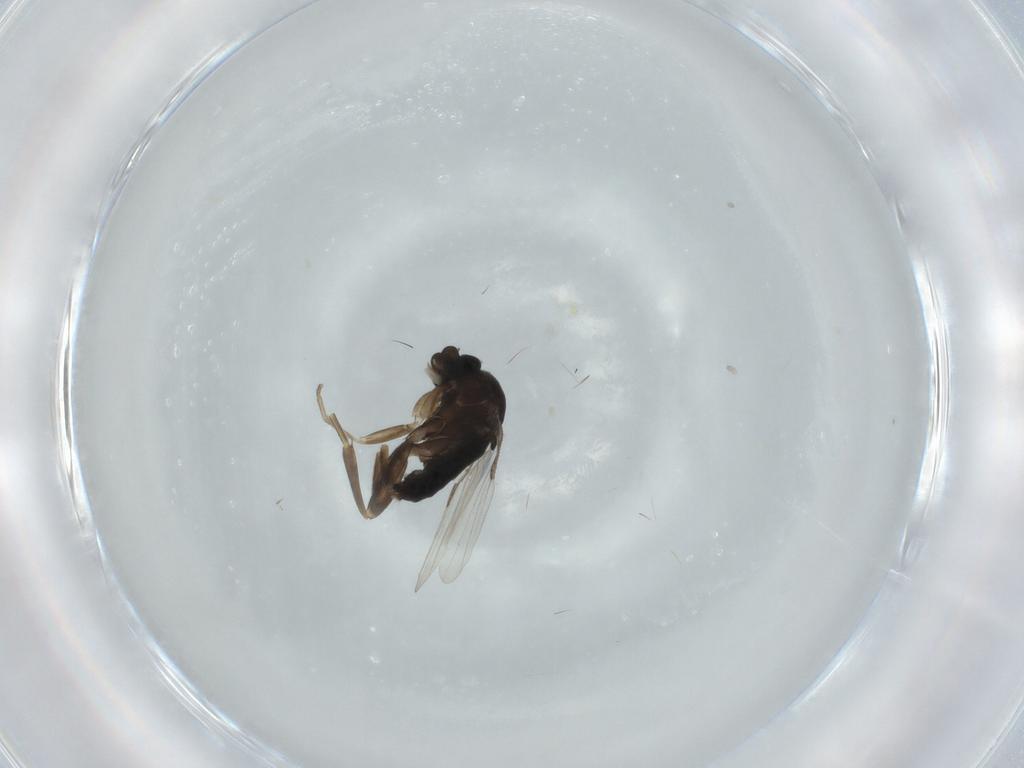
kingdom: Animalia
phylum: Arthropoda
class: Insecta
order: Diptera
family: Phoridae
